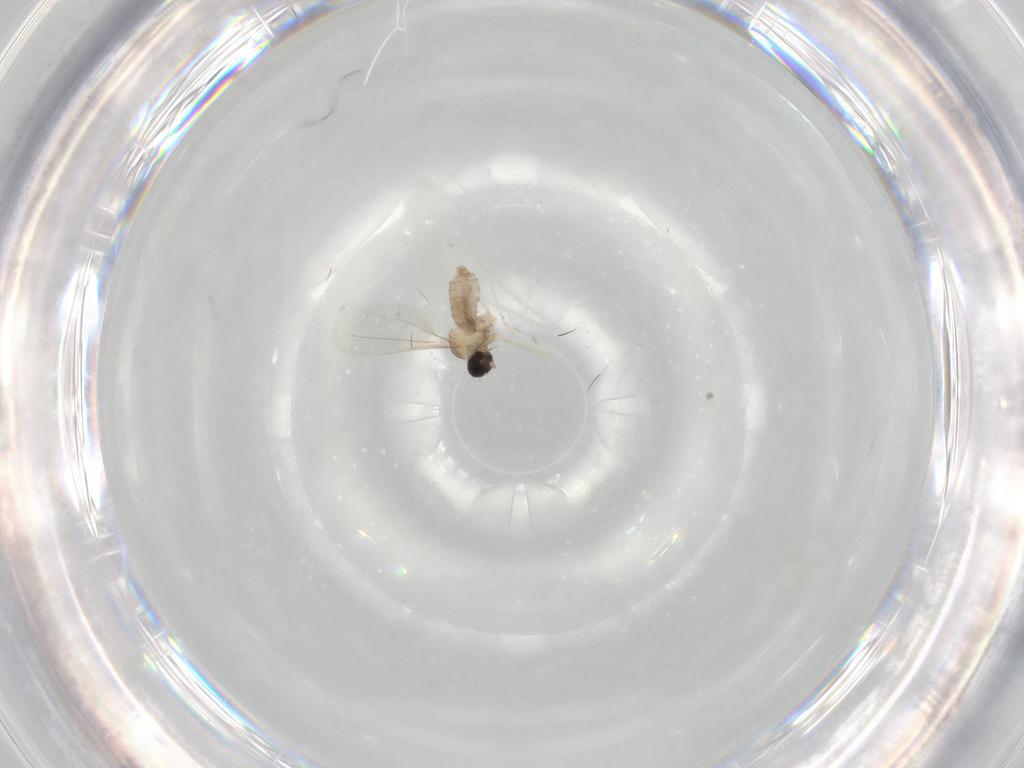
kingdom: Animalia
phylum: Arthropoda
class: Insecta
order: Diptera
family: Cecidomyiidae
